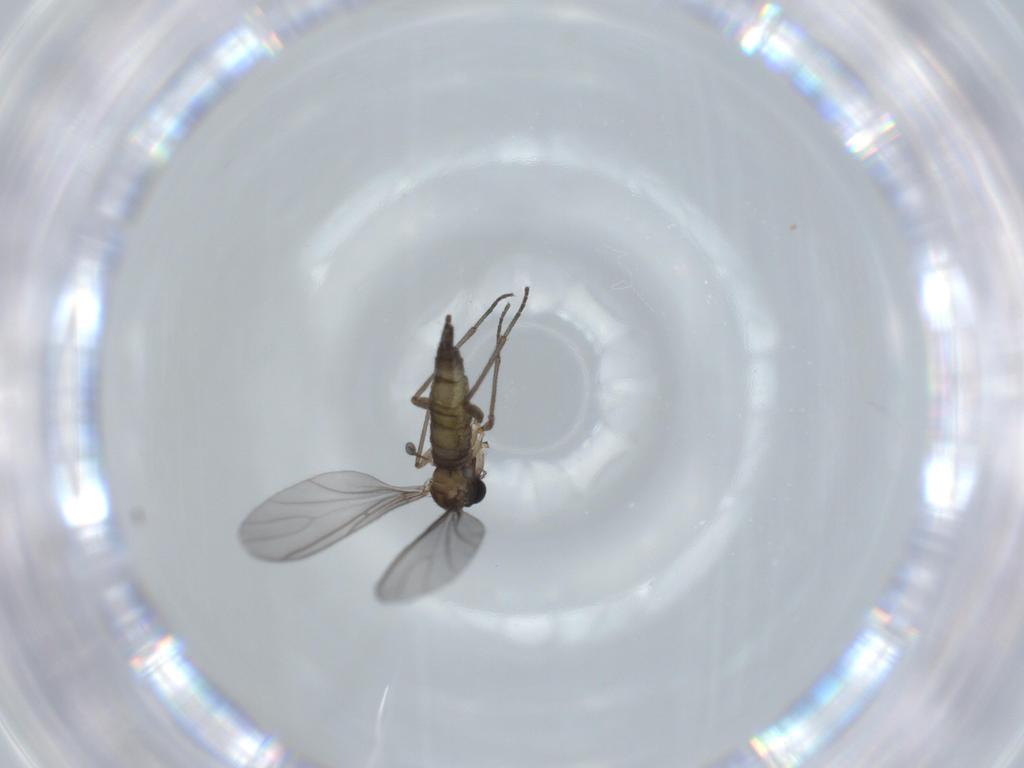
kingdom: Animalia
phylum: Arthropoda
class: Insecta
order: Diptera
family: Sciaridae
